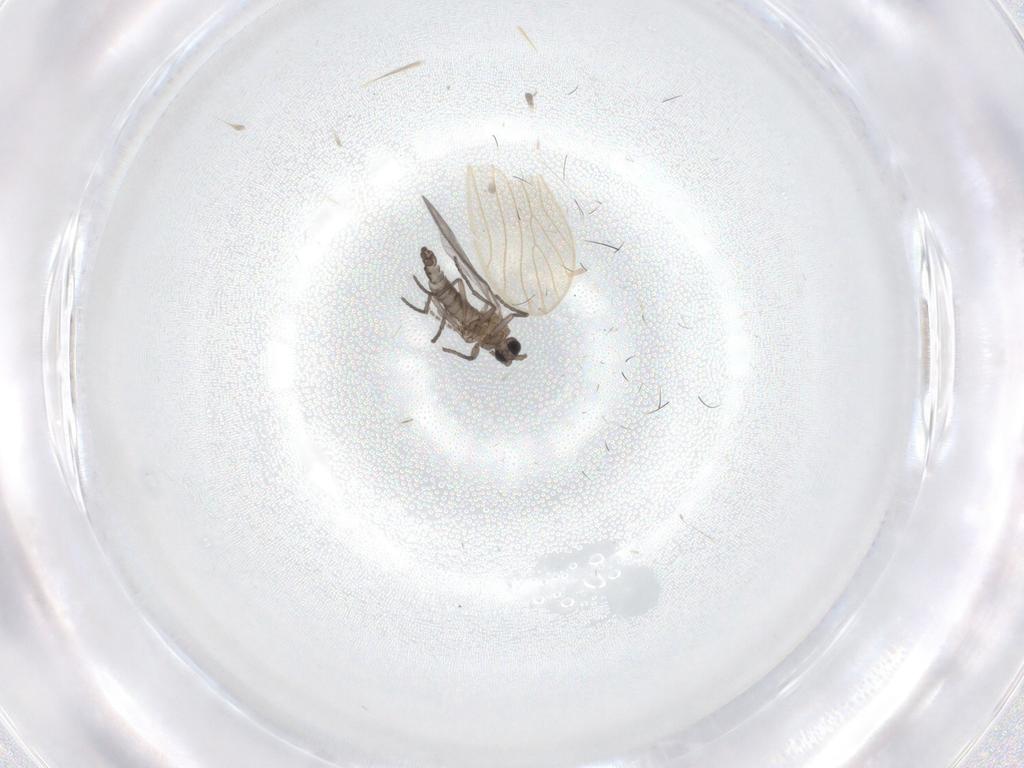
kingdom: Animalia
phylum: Arthropoda
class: Insecta
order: Diptera
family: Sciaridae
